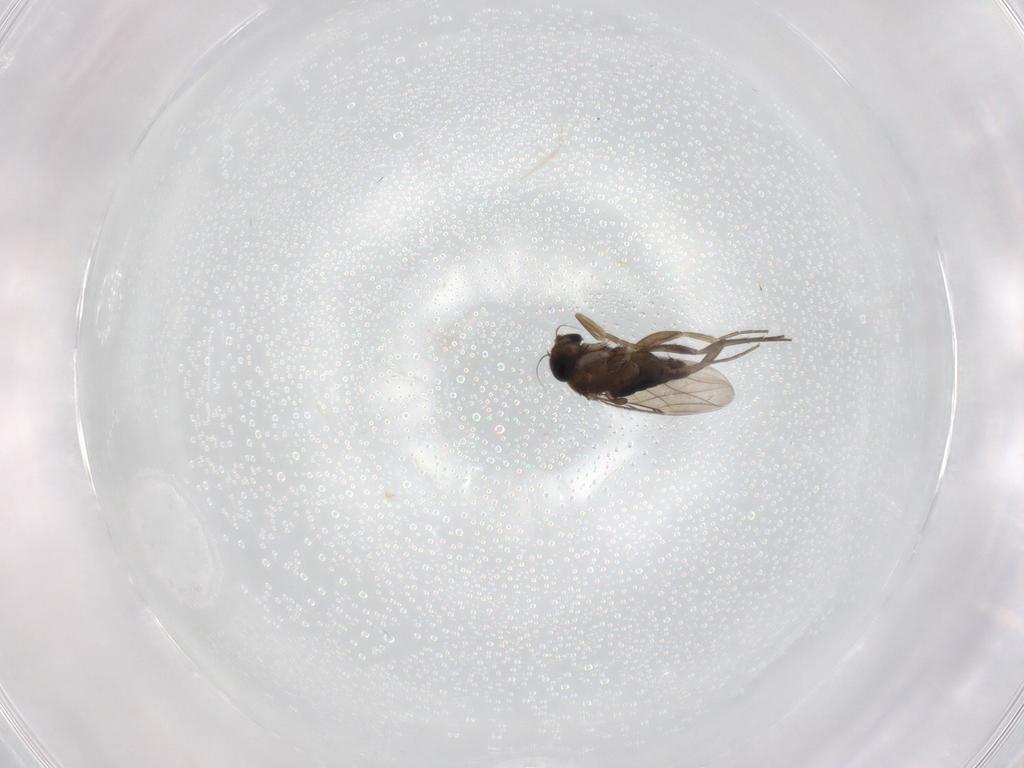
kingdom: Animalia
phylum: Arthropoda
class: Insecta
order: Diptera
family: Phoridae
